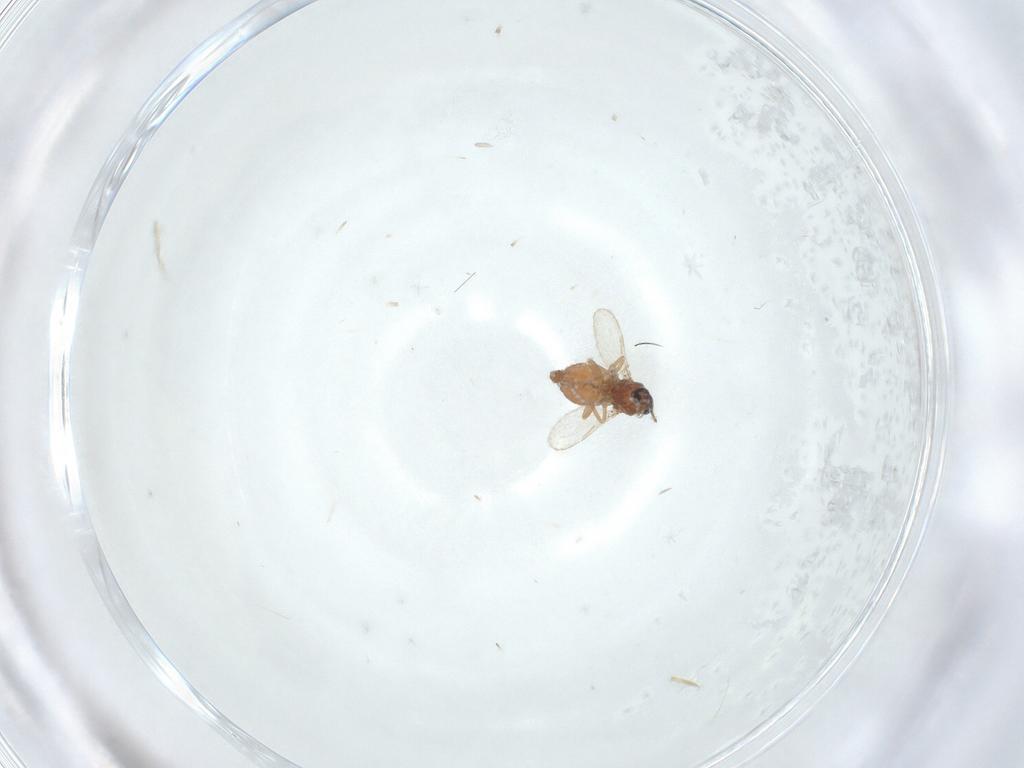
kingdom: Animalia
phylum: Arthropoda
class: Insecta
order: Diptera
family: Ceratopogonidae
